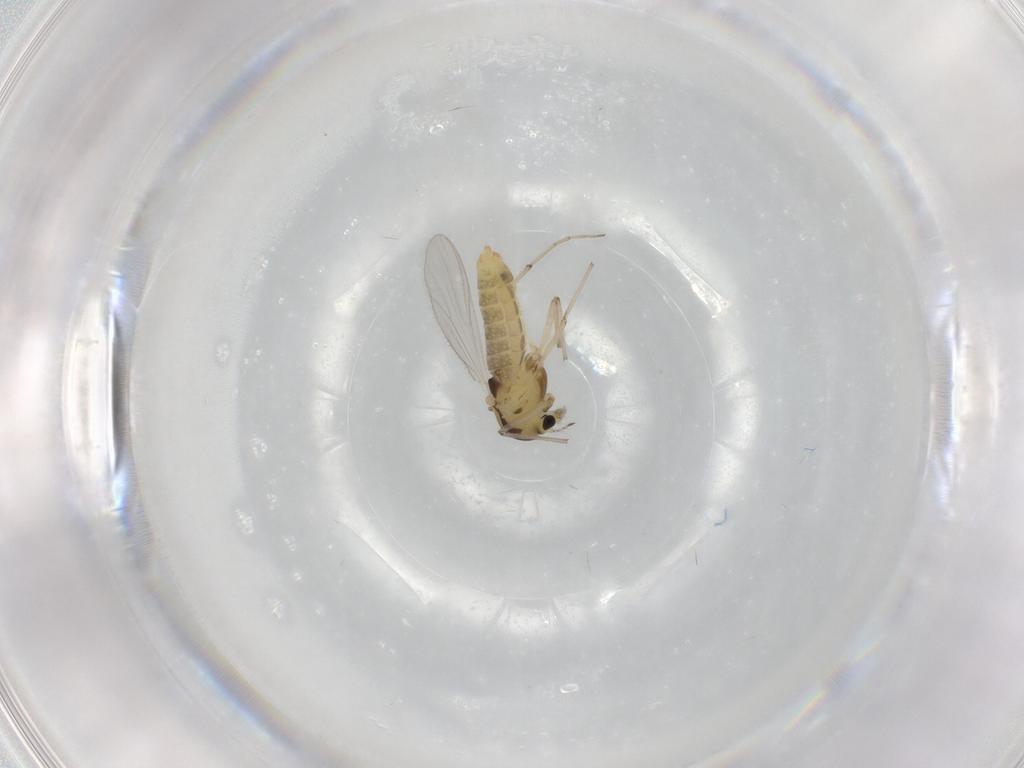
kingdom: Animalia
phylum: Arthropoda
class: Insecta
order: Diptera
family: Chironomidae
